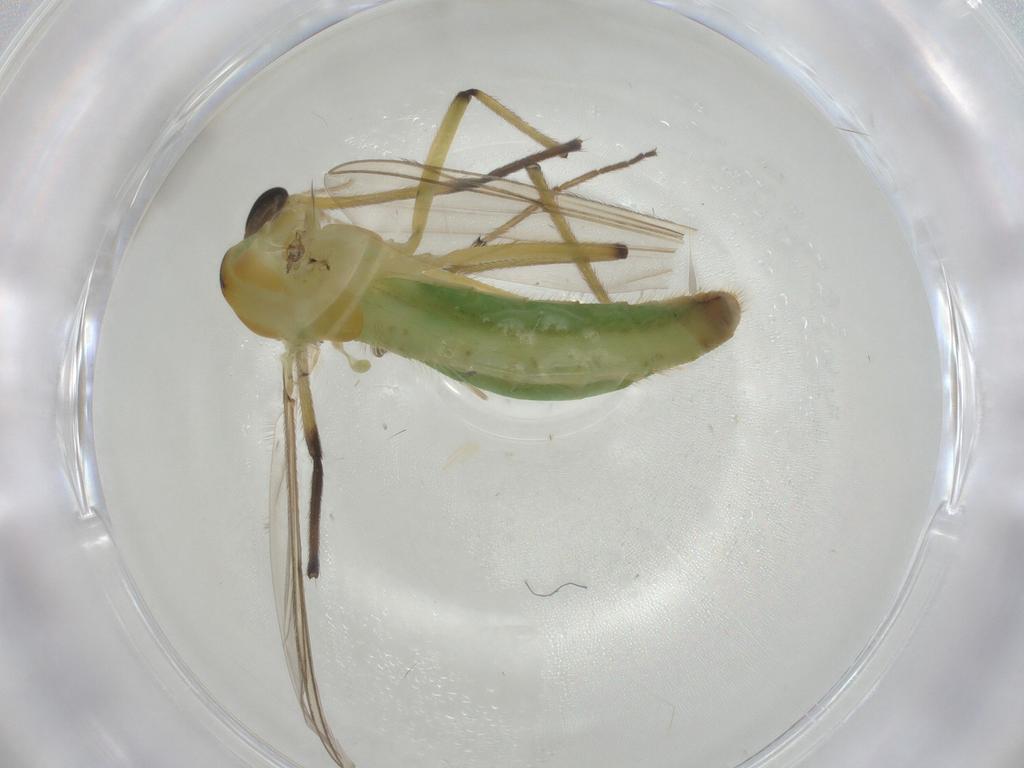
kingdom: Animalia
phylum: Arthropoda
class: Insecta
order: Diptera
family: Chironomidae
